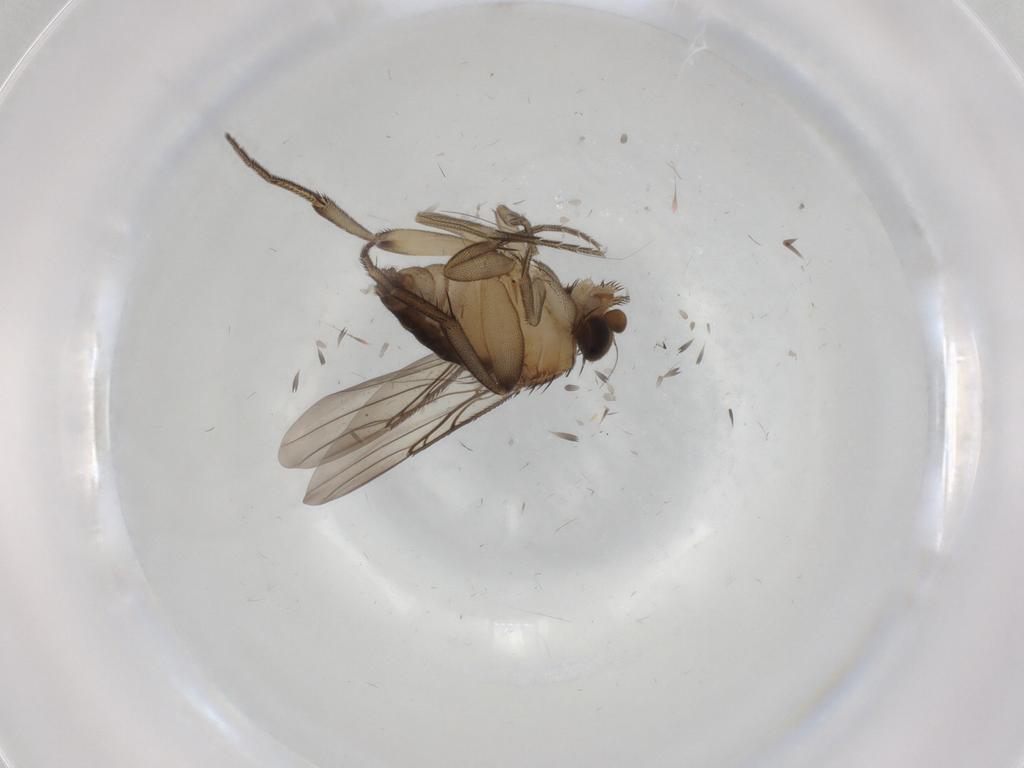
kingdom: Animalia
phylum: Arthropoda
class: Insecta
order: Diptera
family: Phoridae
